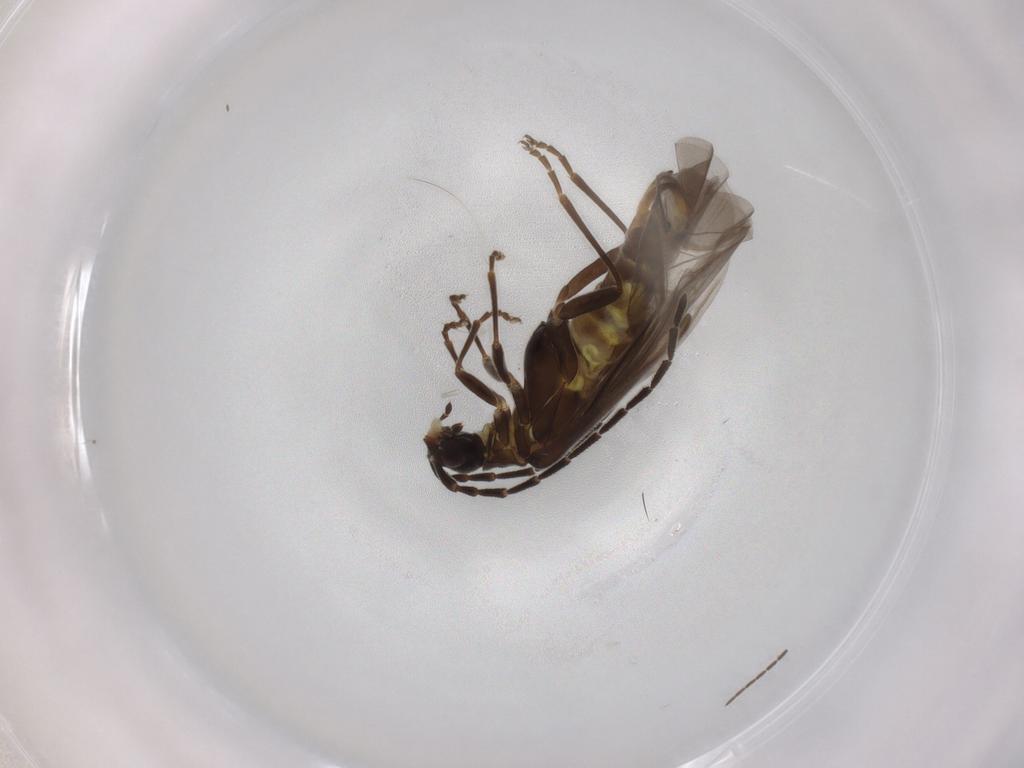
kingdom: Animalia
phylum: Arthropoda
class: Insecta
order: Coleoptera
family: Cantharidae
